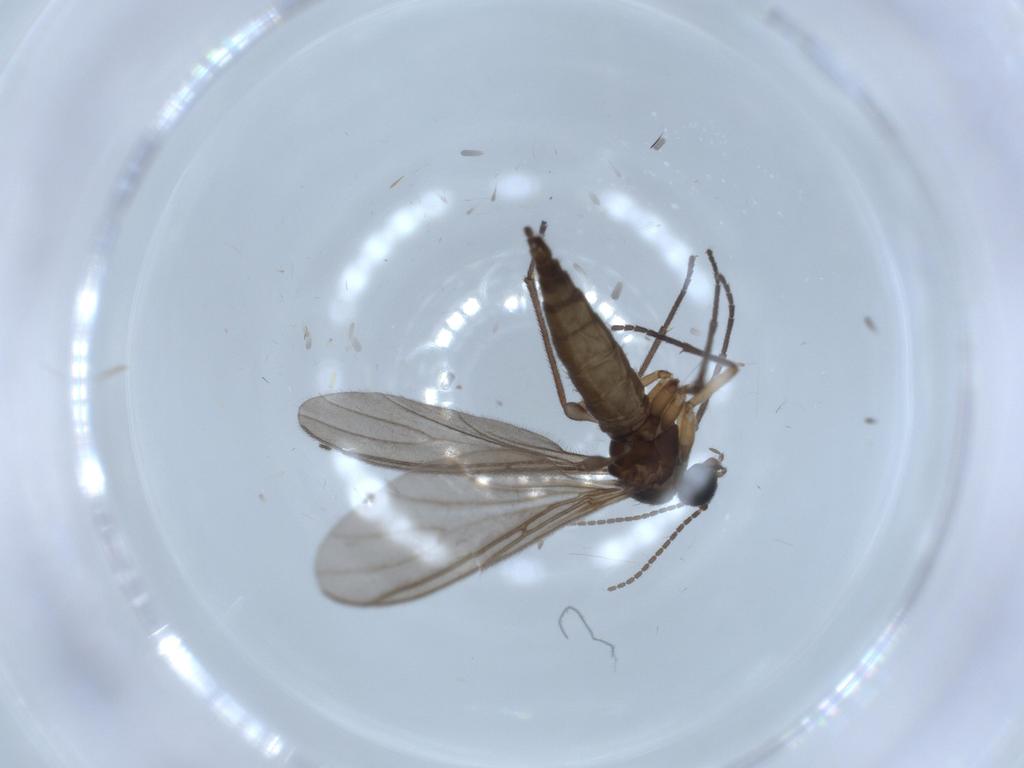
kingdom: Animalia
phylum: Arthropoda
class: Insecta
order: Diptera
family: Sciaridae
